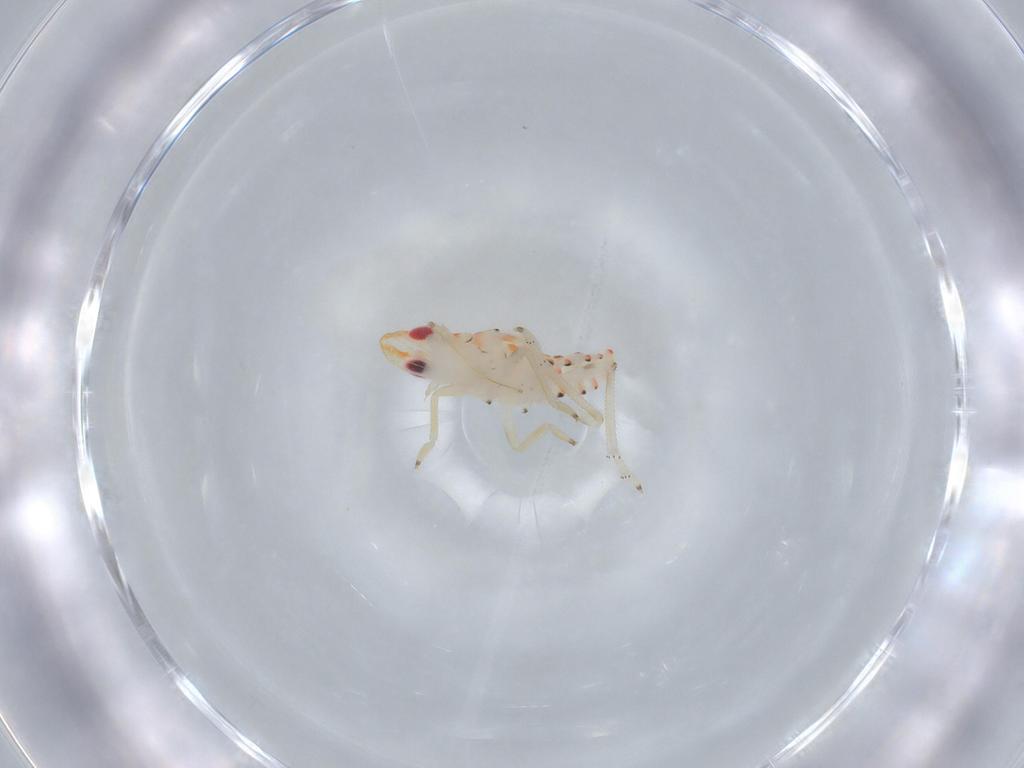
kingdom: Animalia
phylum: Arthropoda
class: Insecta
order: Hemiptera
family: Tropiduchidae
